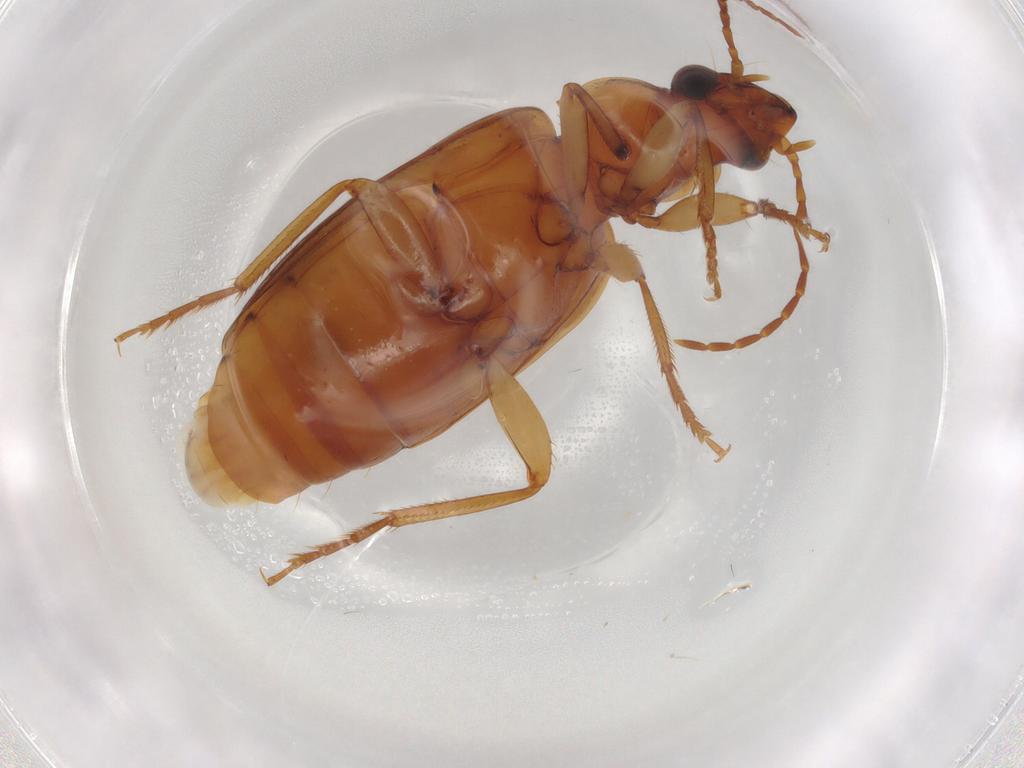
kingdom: Animalia
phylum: Arthropoda
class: Insecta
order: Coleoptera
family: Carabidae
